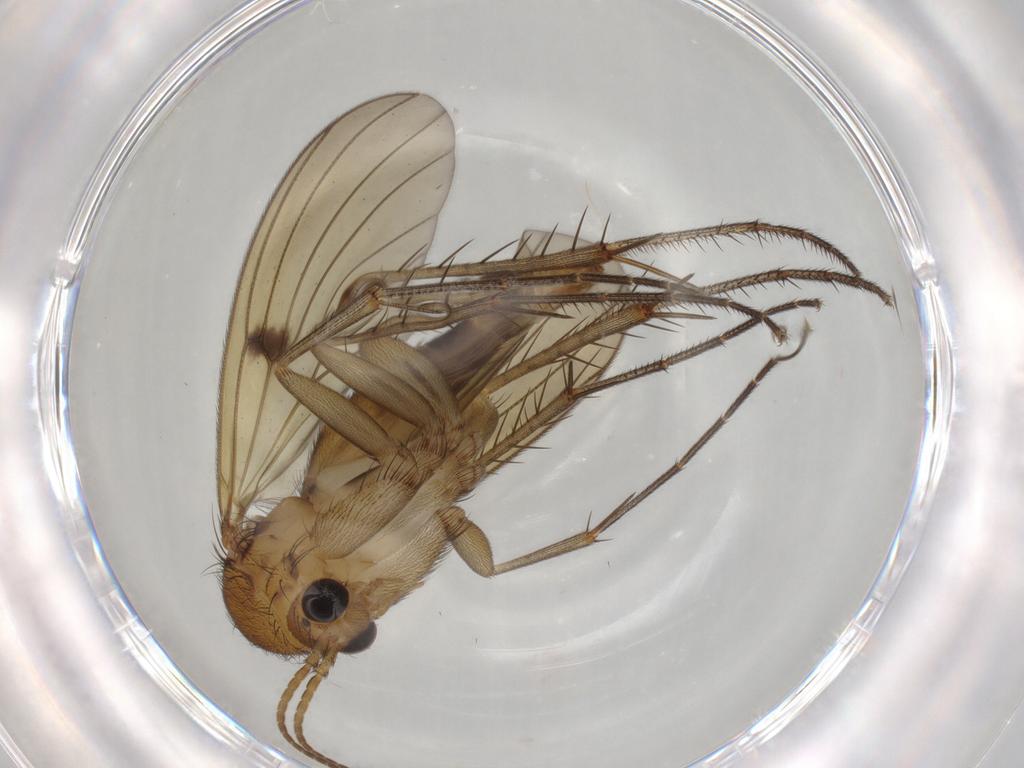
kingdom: Animalia
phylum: Arthropoda
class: Insecta
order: Diptera
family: Mycetophilidae
